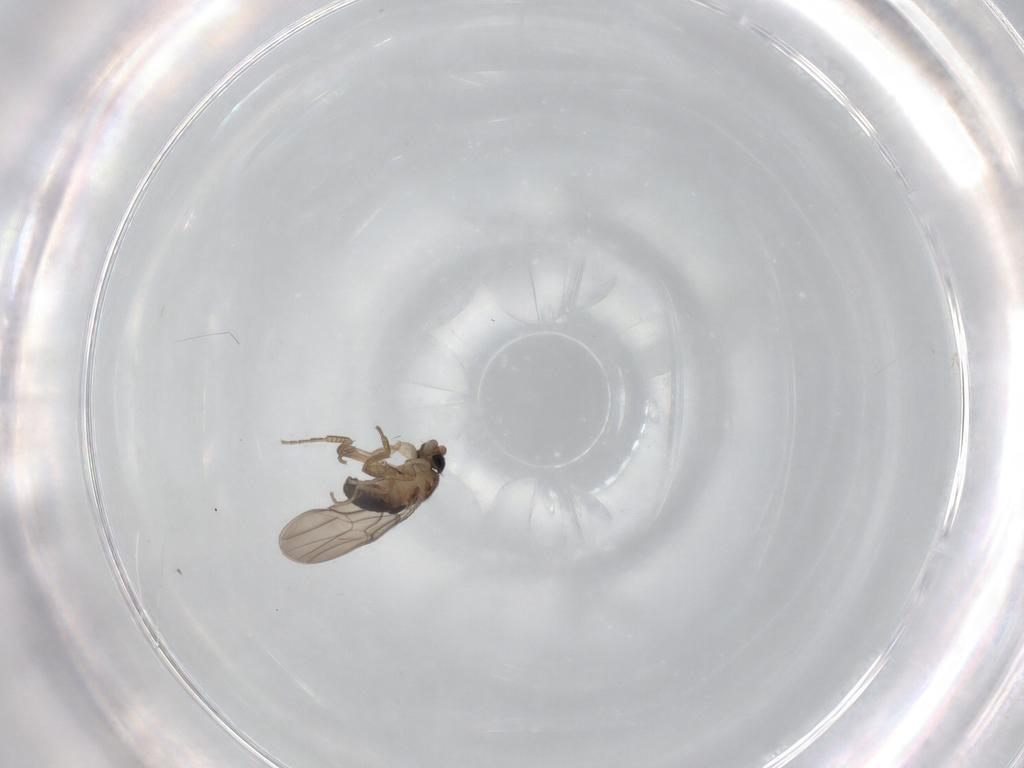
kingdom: Animalia
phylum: Arthropoda
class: Insecta
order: Diptera
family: Phoridae
